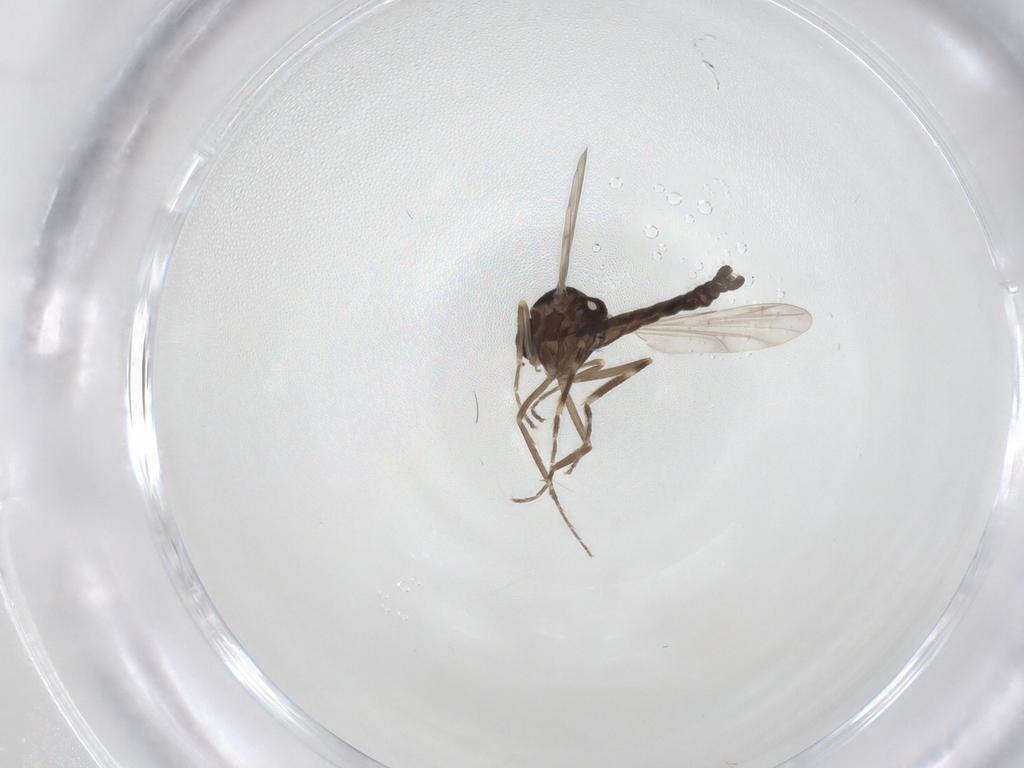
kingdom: Animalia
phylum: Arthropoda
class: Insecta
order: Diptera
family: Ceratopogonidae
